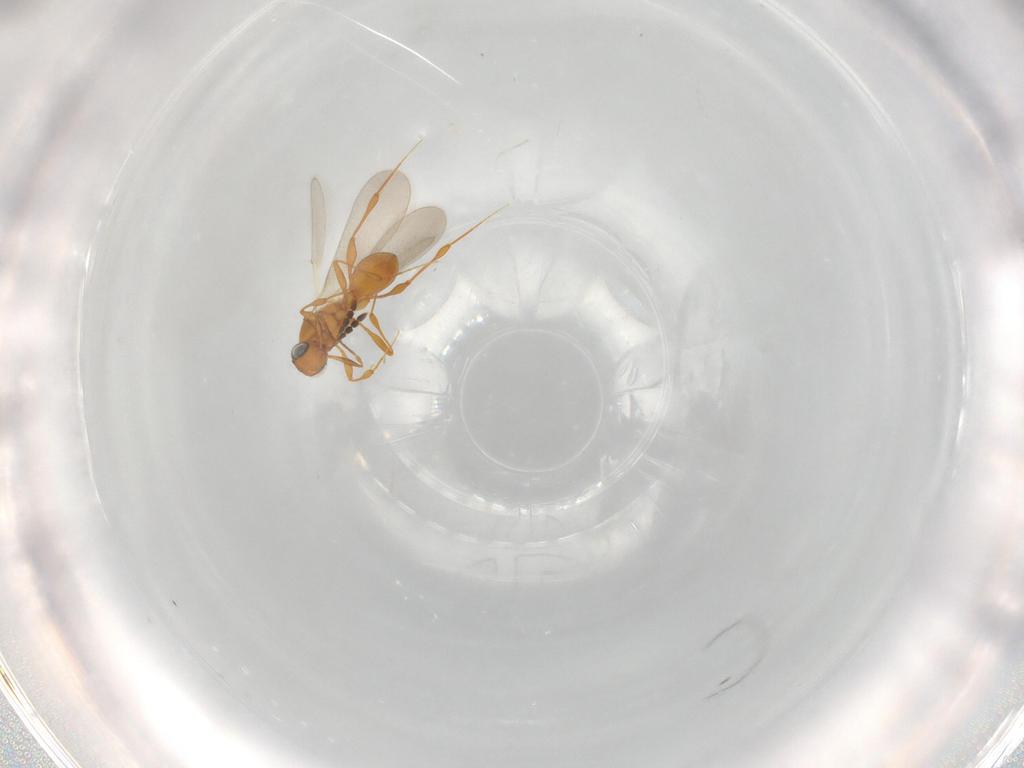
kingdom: Animalia
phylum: Arthropoda
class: Insecta
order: Hymenoptera
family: Platygastridae
